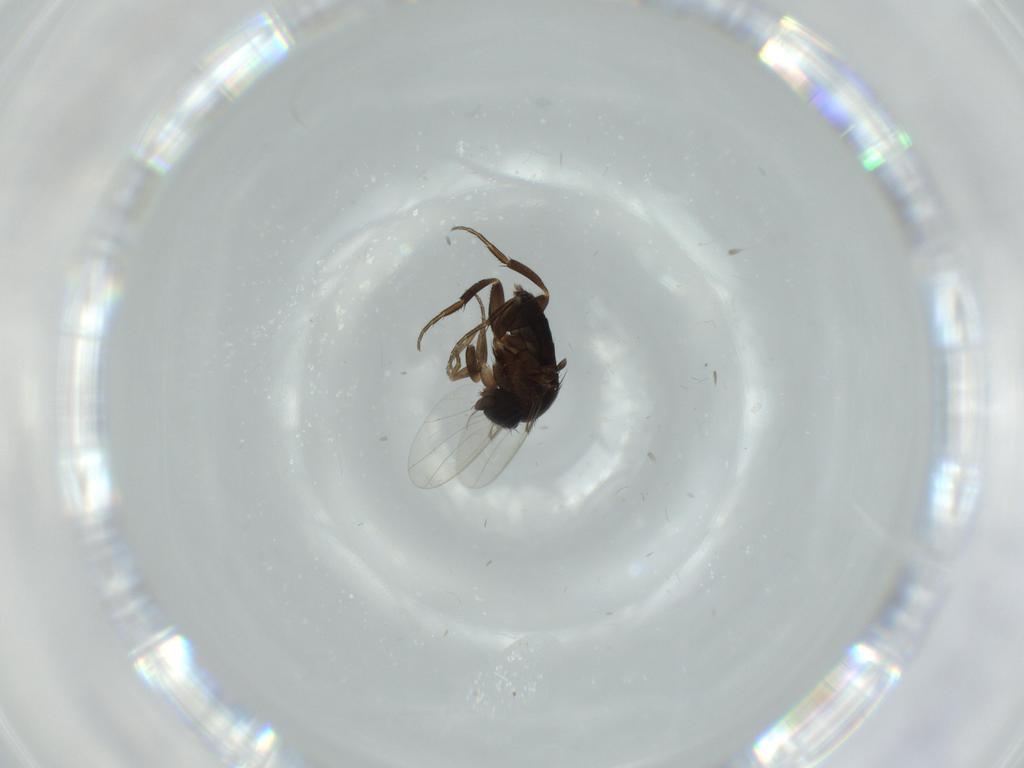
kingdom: Animalia
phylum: Arthropoda
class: Insecta
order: Diptera
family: Phoridae
